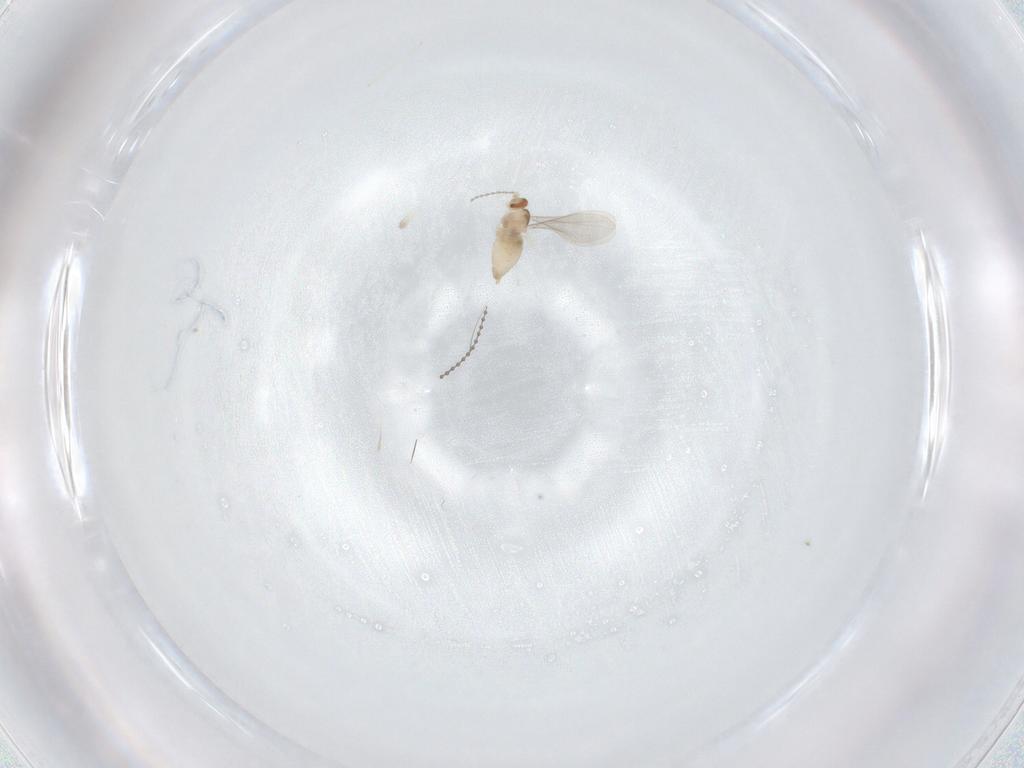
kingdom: Animalia
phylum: Arthropoda
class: Insecta
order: Diptera
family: Cecidomyiidae
